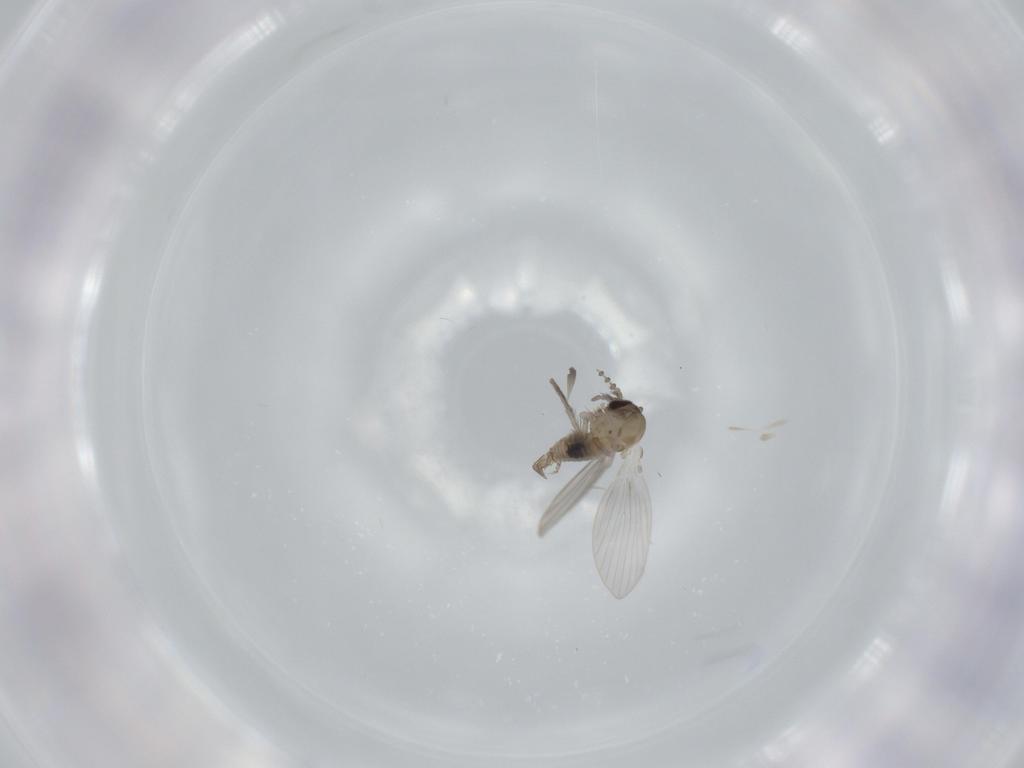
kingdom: Animalia
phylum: Arthropoda
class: Insecta
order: Diptera
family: Psychodidae
